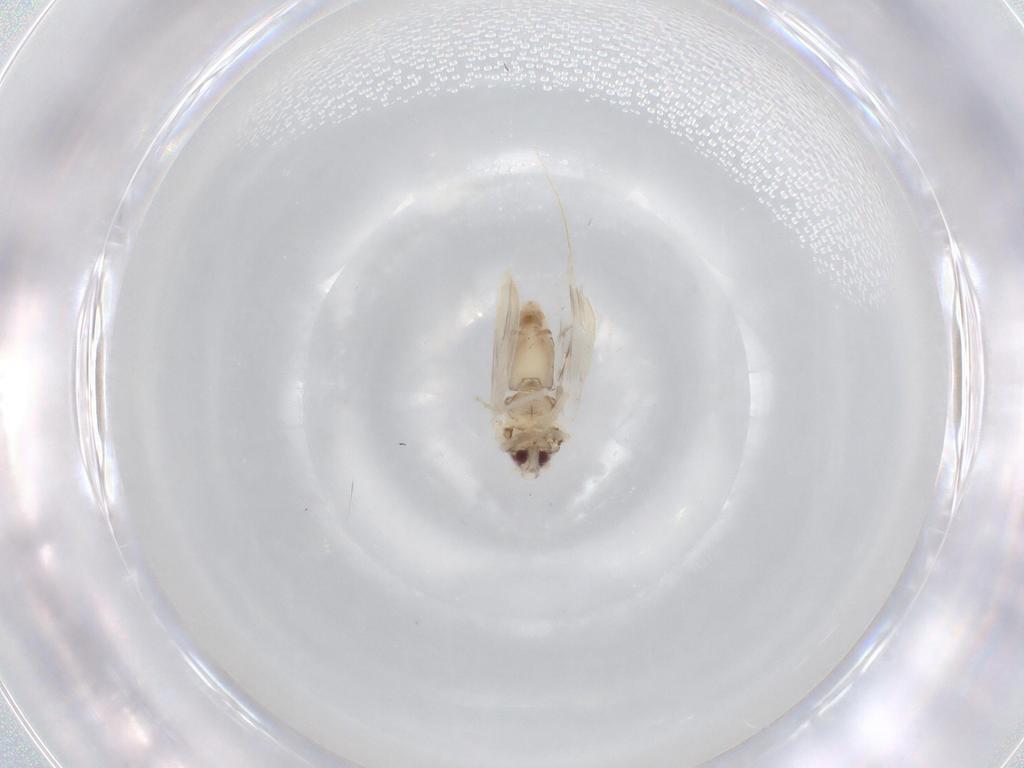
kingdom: Animalia
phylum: Arthropoda
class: Insecta
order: Hemiptera
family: Aleyrodidae
